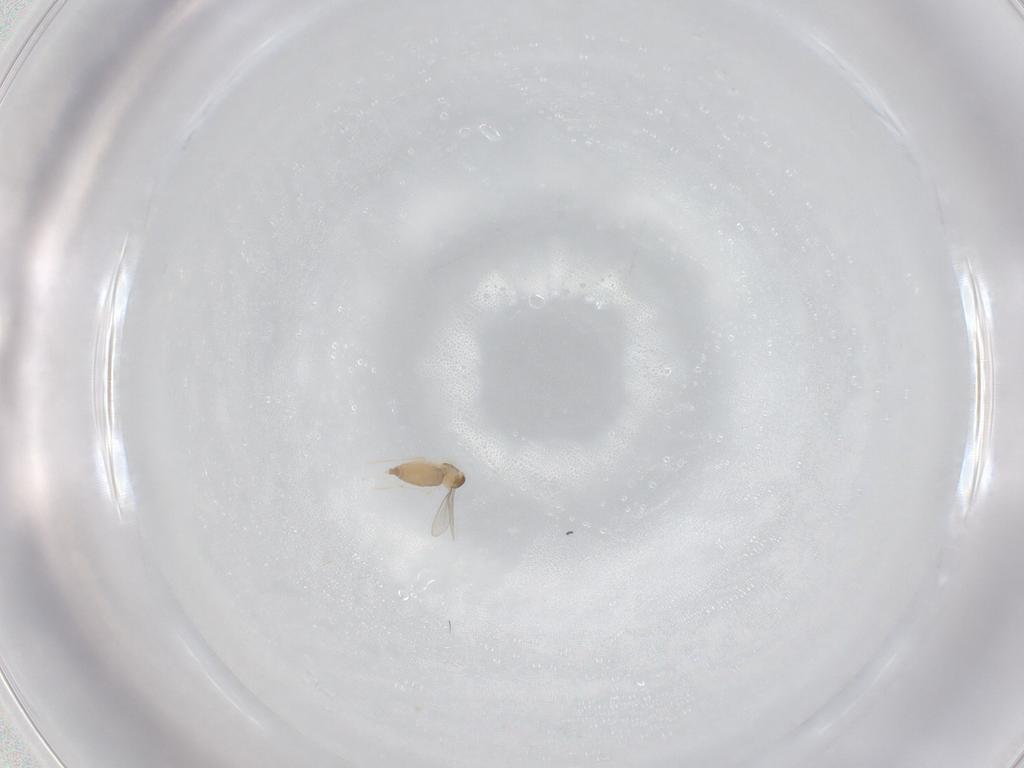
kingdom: Animalia
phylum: Arthropoda
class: Insecta
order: Diptera
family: Cecidomyiidae
